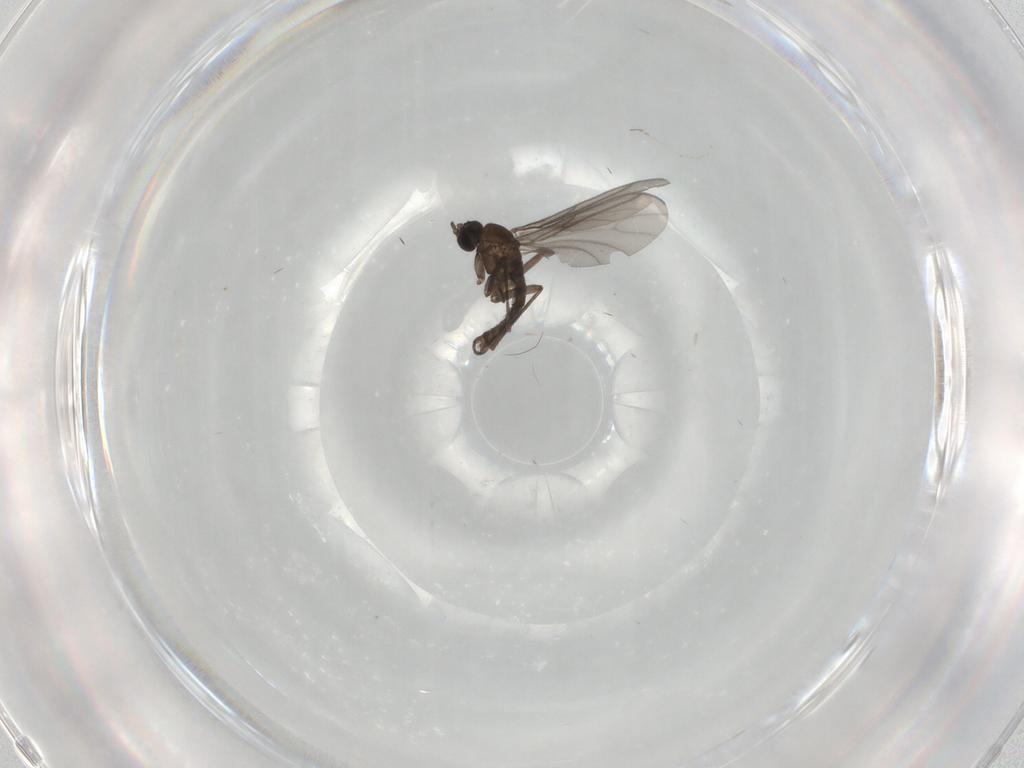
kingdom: Animalia
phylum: Arthropoda
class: Insecta
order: Diptera
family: Sciaridae
